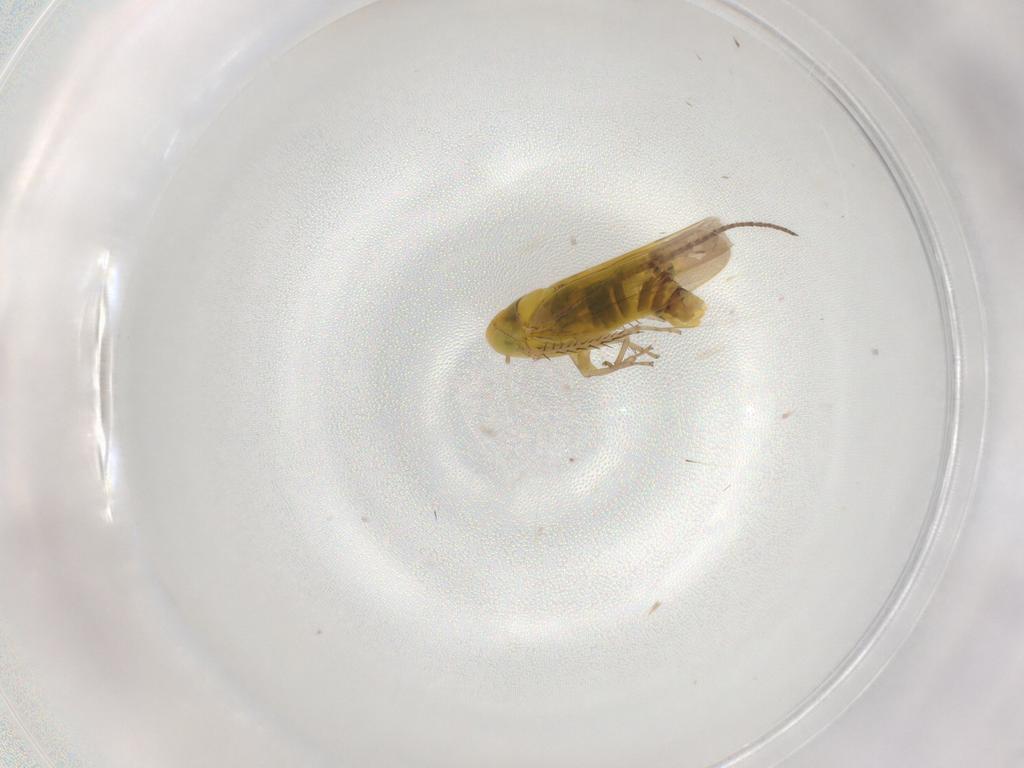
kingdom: Animalia
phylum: Arthropoda
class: Insecta
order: Hemiptera
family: Cicadellidae
